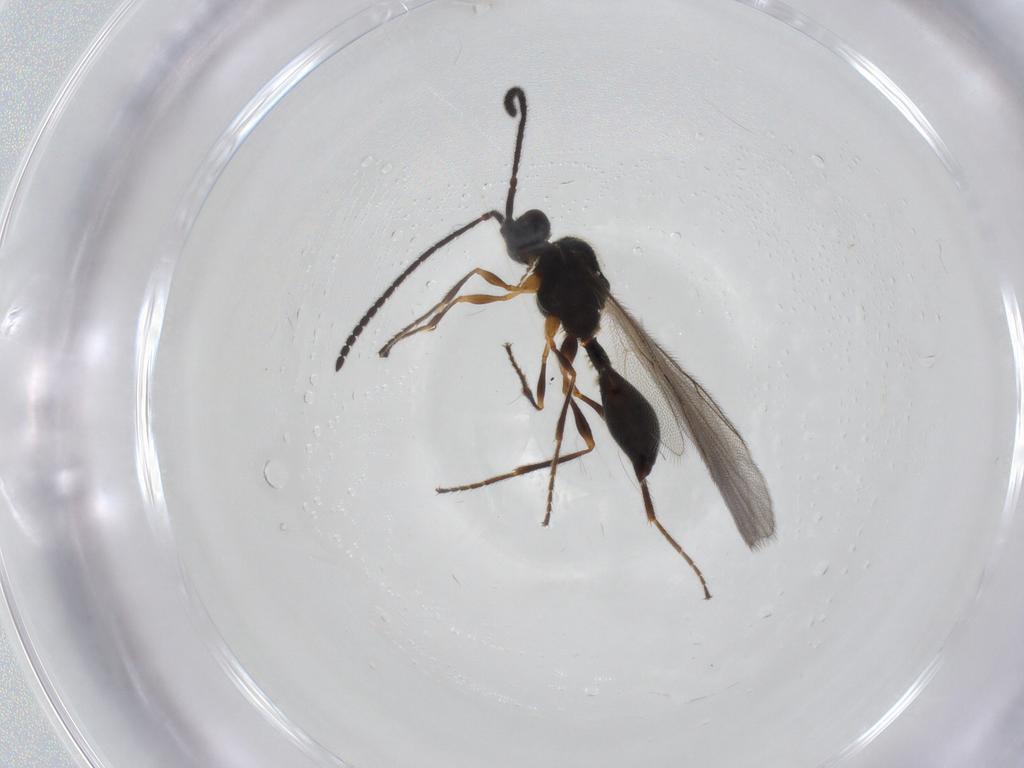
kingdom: Animalia
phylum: Arthropoda
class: Insecta
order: Hymenoptera
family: Diapriidae
